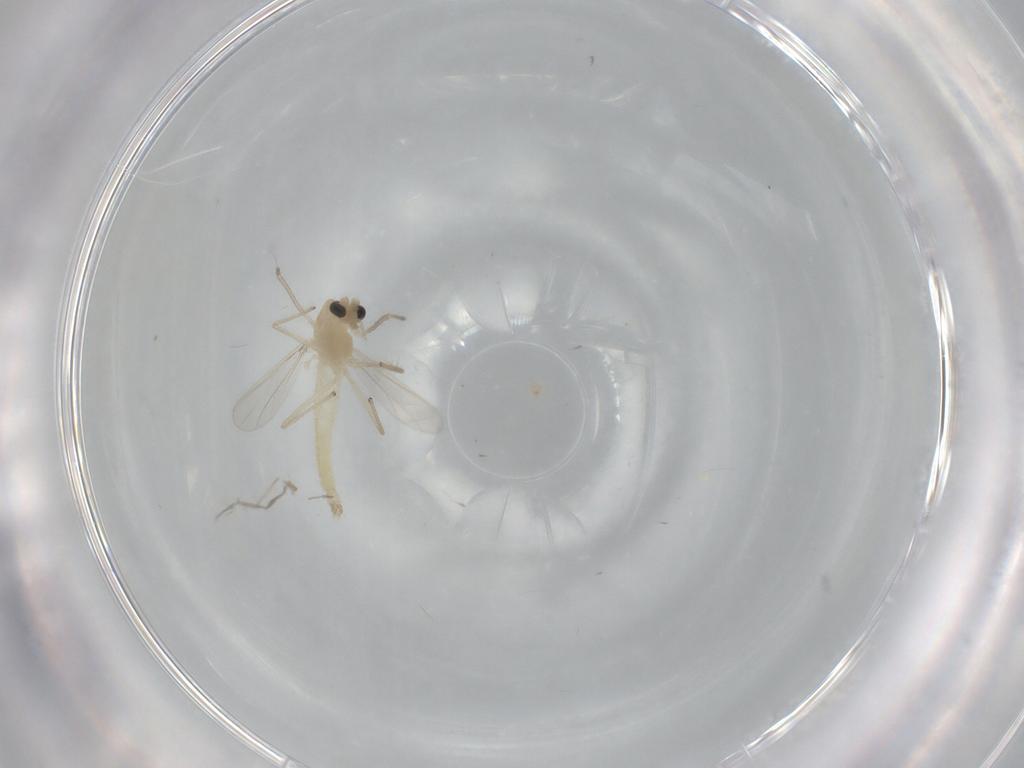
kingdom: Animalia
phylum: Arthropoda
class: Insecta
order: Diptera
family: Chironomidae
